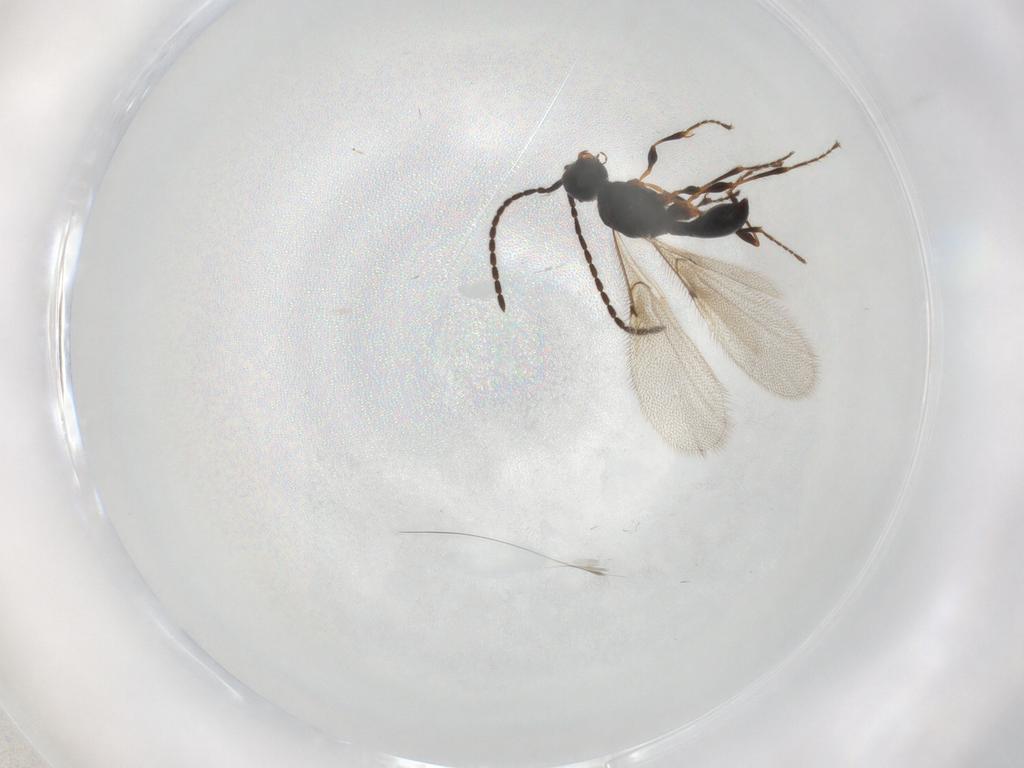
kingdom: Animalia
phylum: Arthropoda
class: Insecta
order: Hymenoptera
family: Diapriidae
